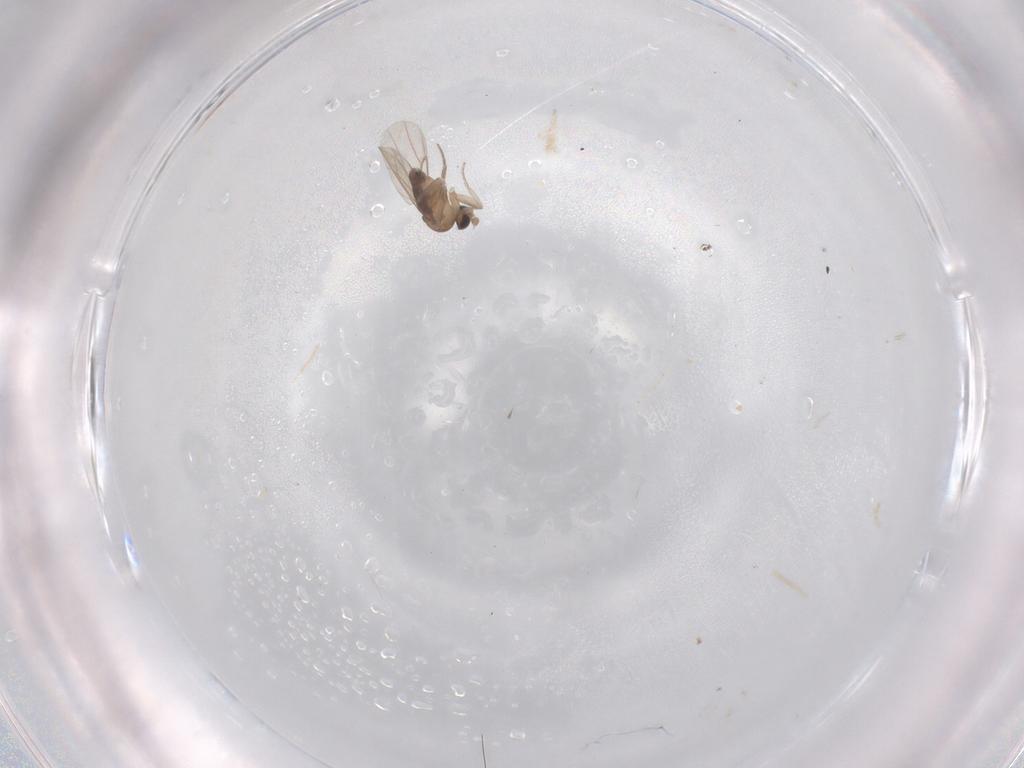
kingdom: Animalia
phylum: Arthropoda
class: Insecta
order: Diptera
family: Phoridae
